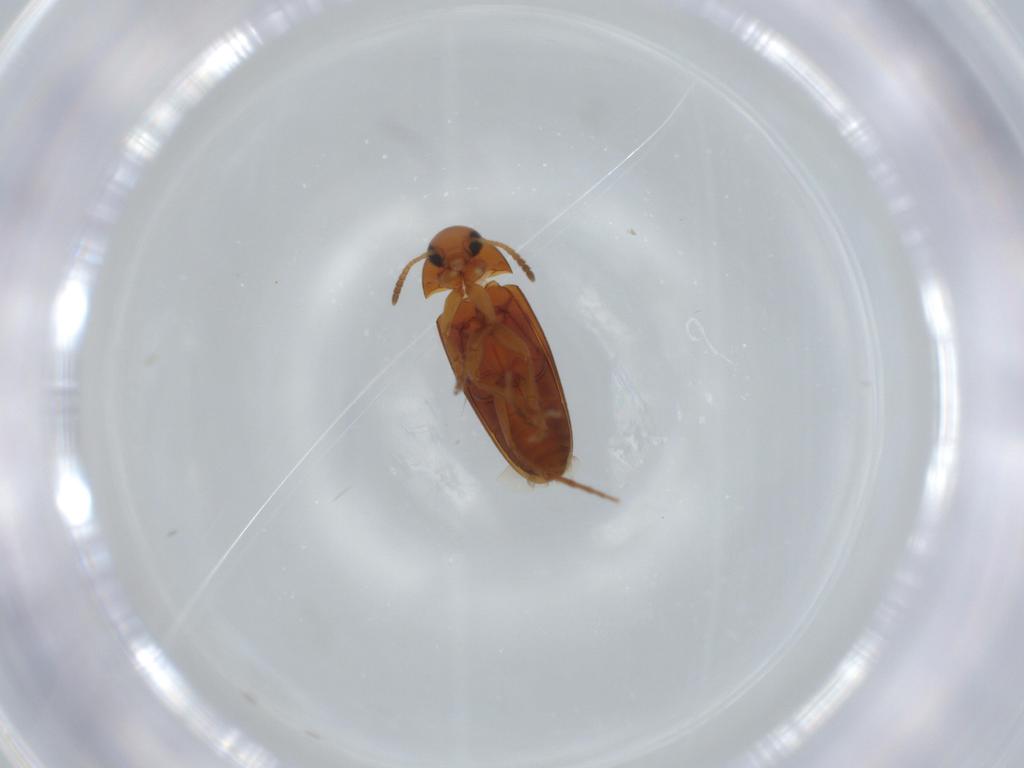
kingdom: Animalia
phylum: Arthropoda
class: Insecta
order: Coleoptera
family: Scraptiidae
